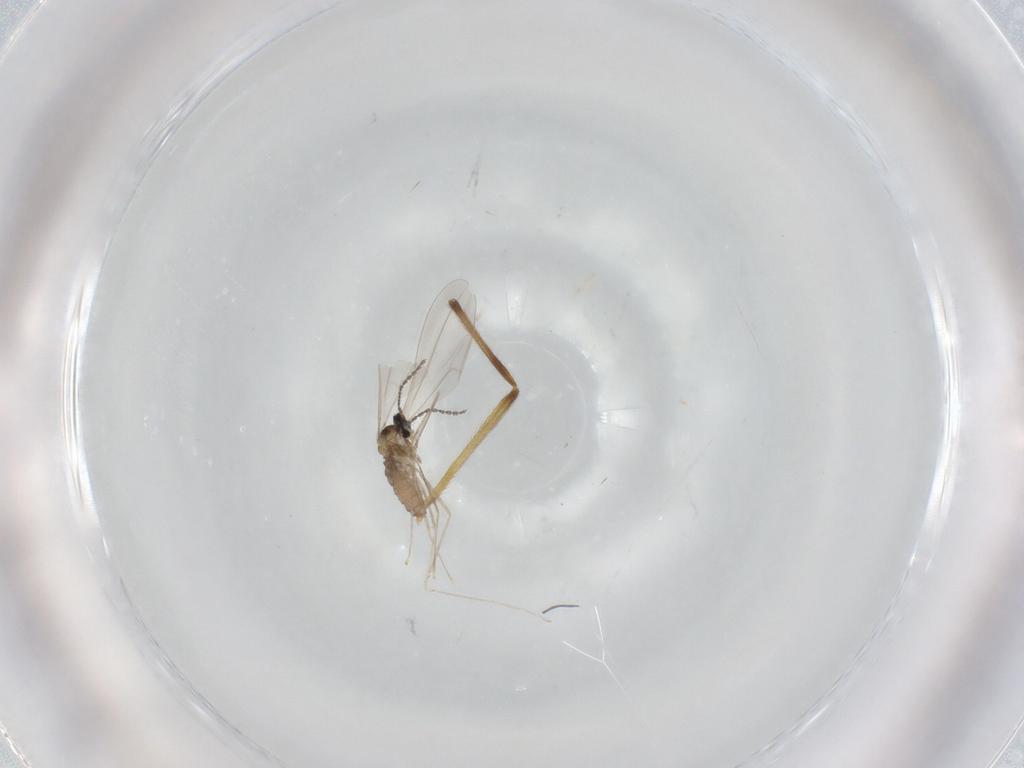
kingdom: Animalia
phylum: Arthropoda
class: Insecta
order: Diptera
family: Cecidomyiidae
